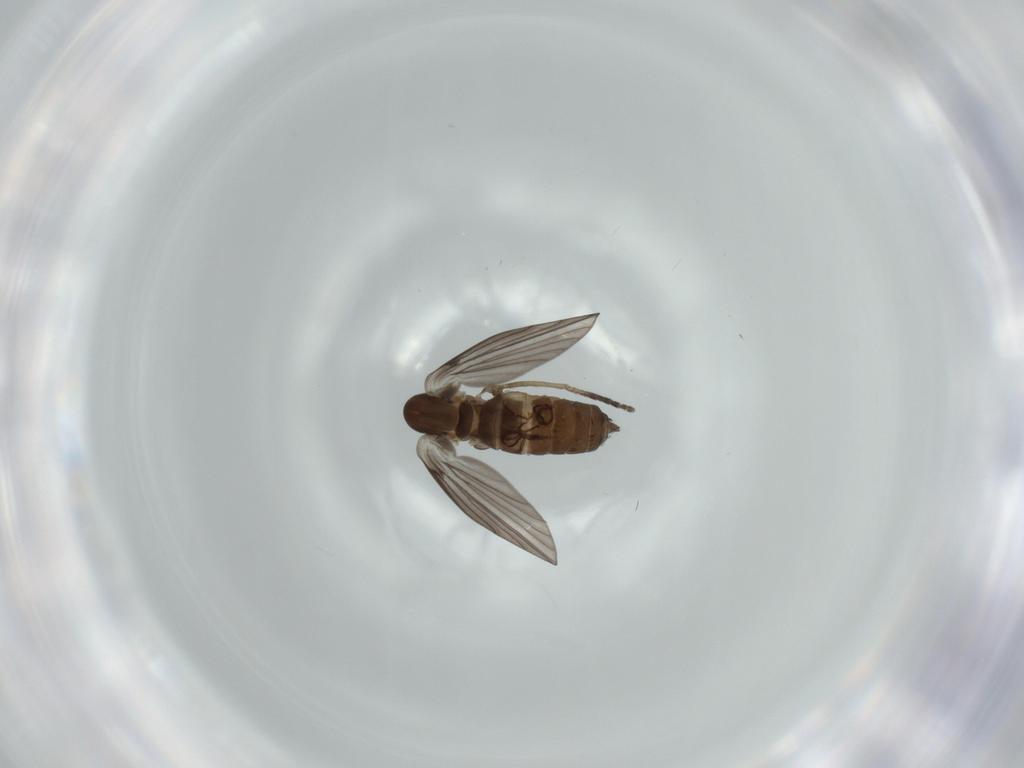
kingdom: Animalia
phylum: Arthropoda
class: Insecta
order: Diptera
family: Psychodidae
